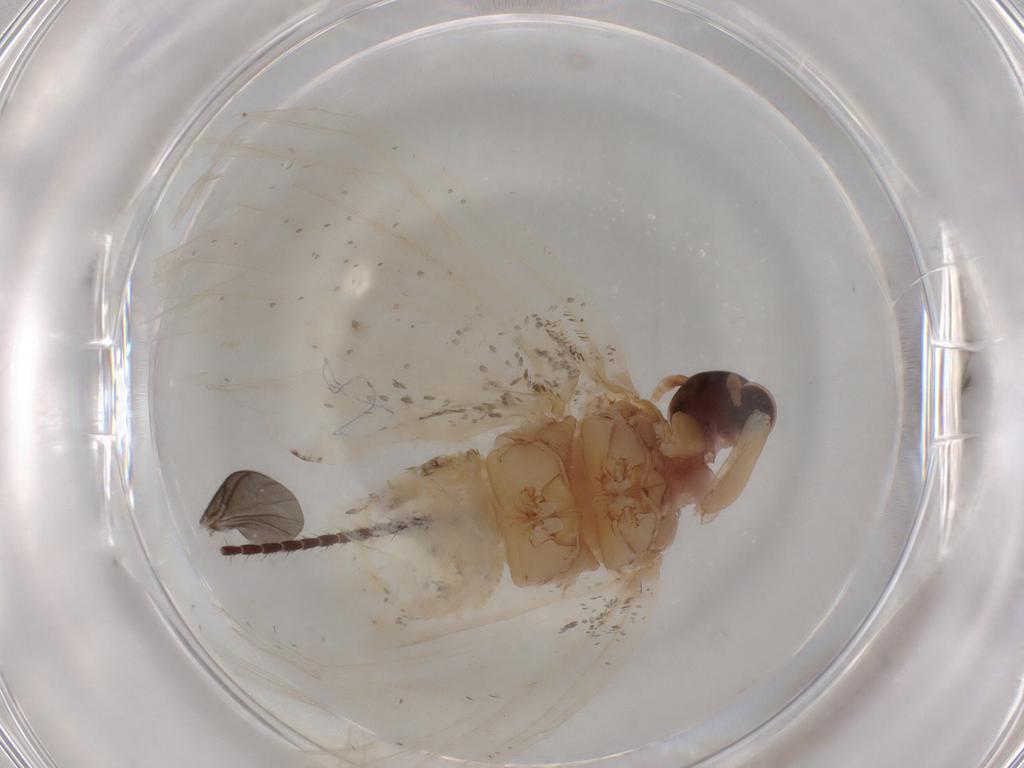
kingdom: Animalia
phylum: Arthropoda
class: Insecta
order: Lepidoptera
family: Tineidae
